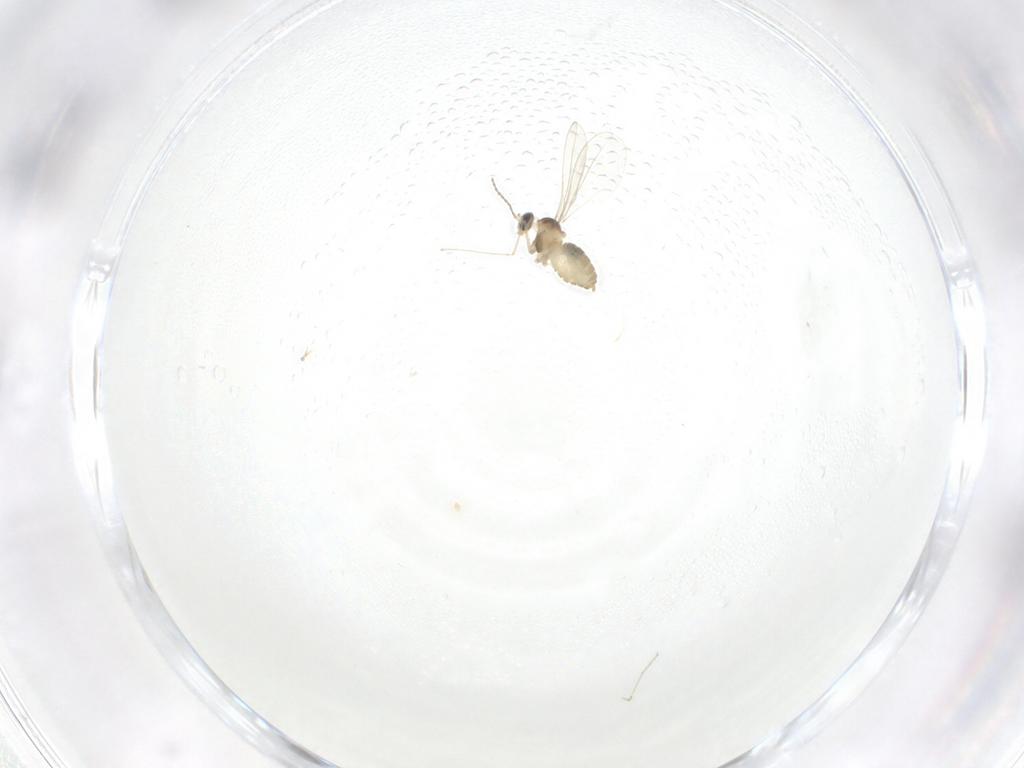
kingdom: Animalia
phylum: Arthropoda
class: Insecta
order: Diptera
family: Cecidomyiidae
